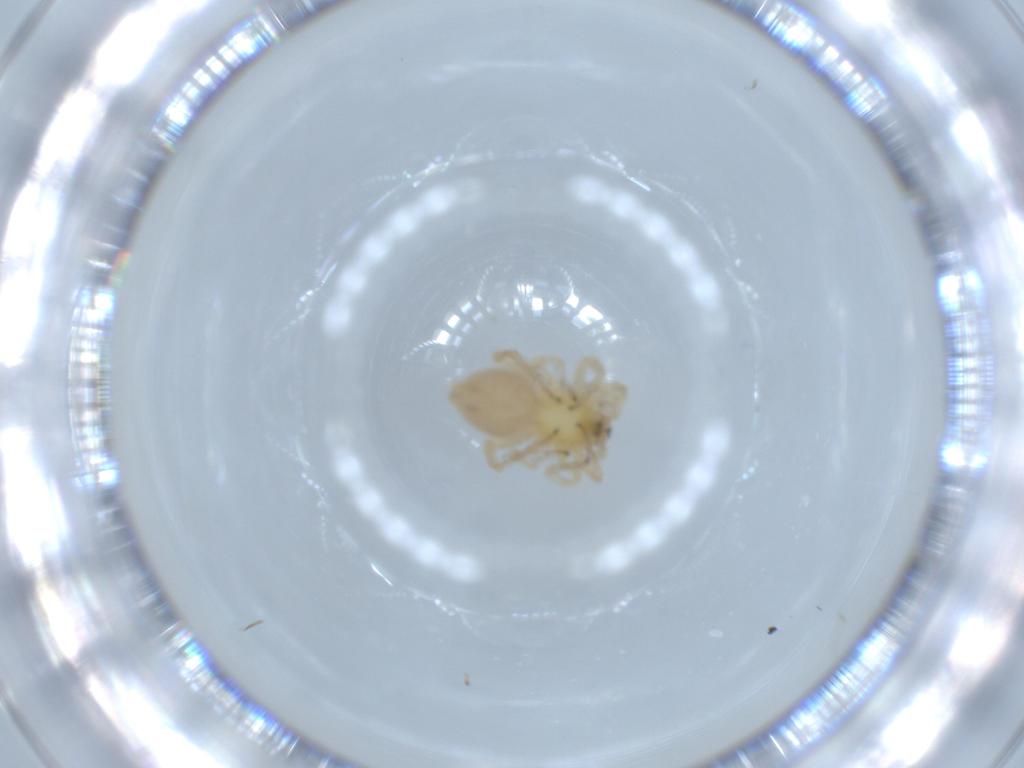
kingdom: Animalia
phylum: Arthropoda
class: Arachnida
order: Araneae
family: Anyphaenidae
